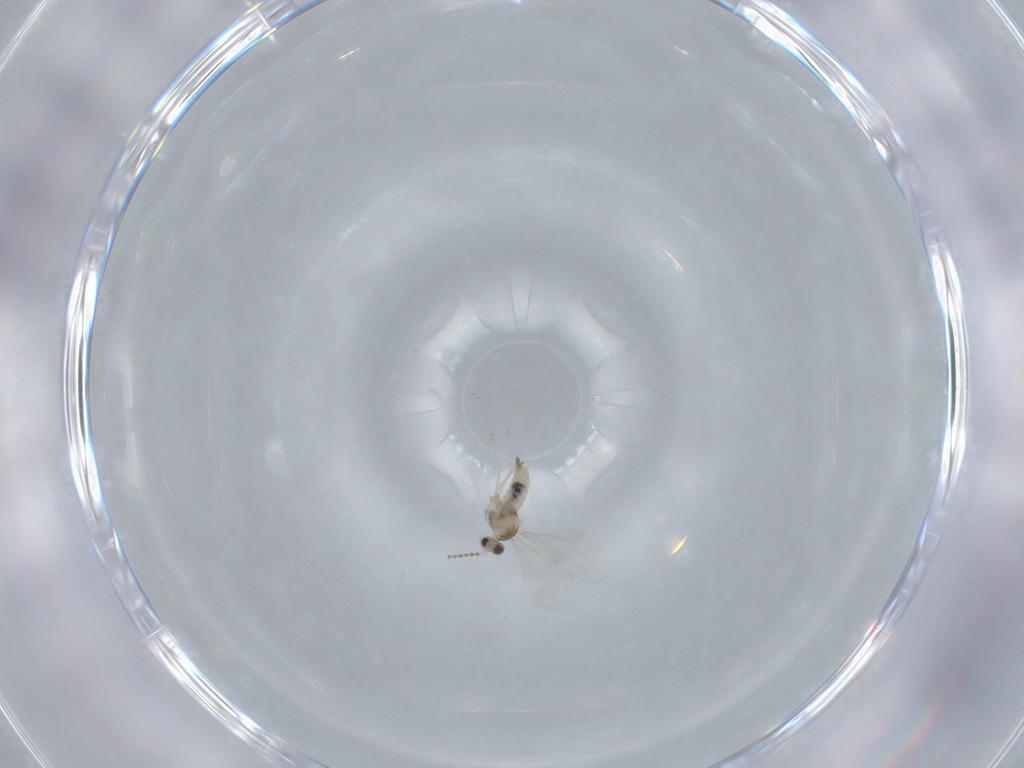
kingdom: Animalia
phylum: Arthropoda
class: Insecta
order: Diptera
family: Cecidomyiidae
